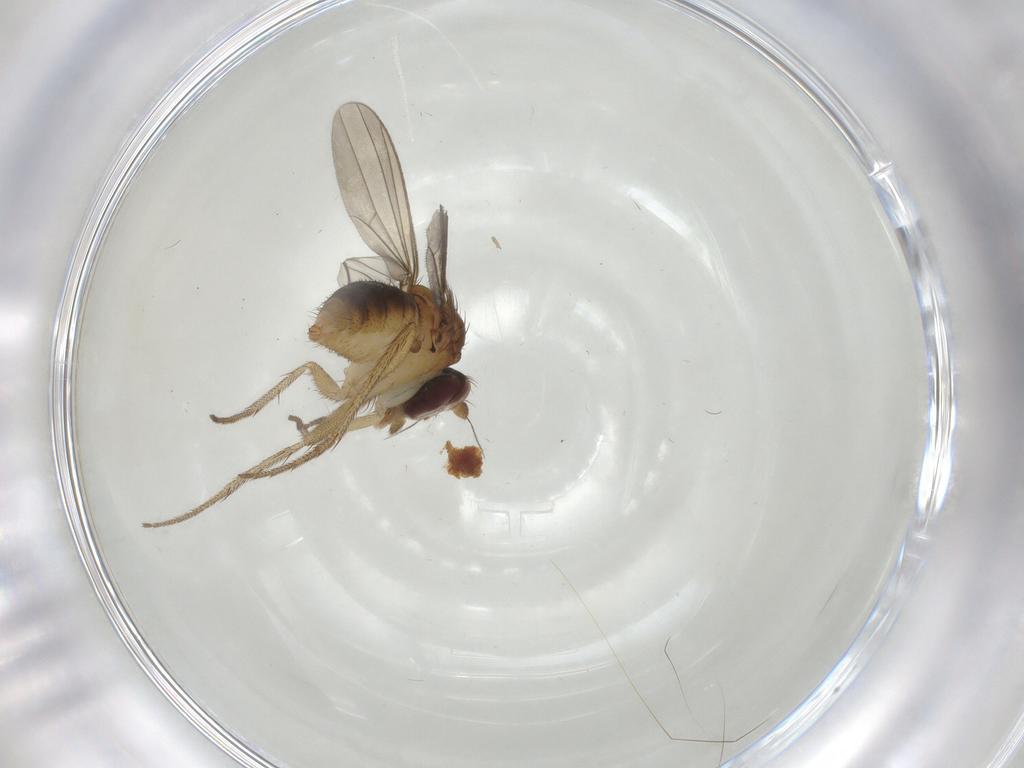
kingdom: Animalia
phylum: Arthropoda
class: Insecta
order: Diptera
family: Dolichopodidae
